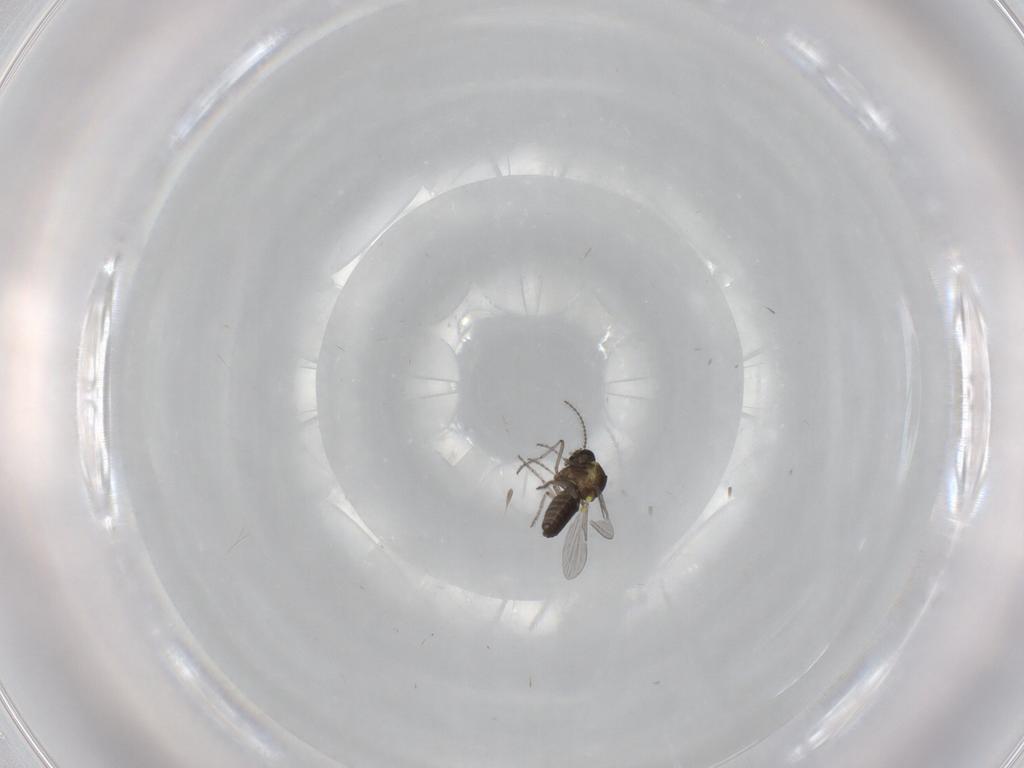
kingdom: Animalia
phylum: Arthropoda
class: Insecta
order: Diptera
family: Ceratopogonidae
